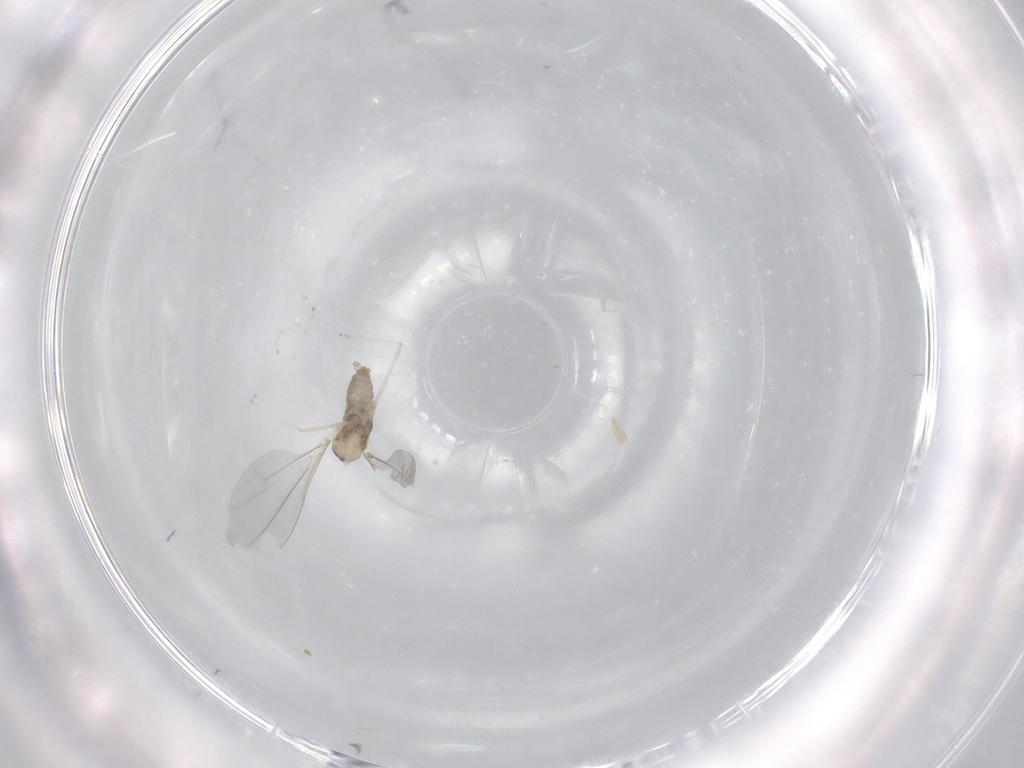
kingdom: Animalia
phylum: Arthropoda
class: Insecta
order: Diptera
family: Cecidomyiidae
